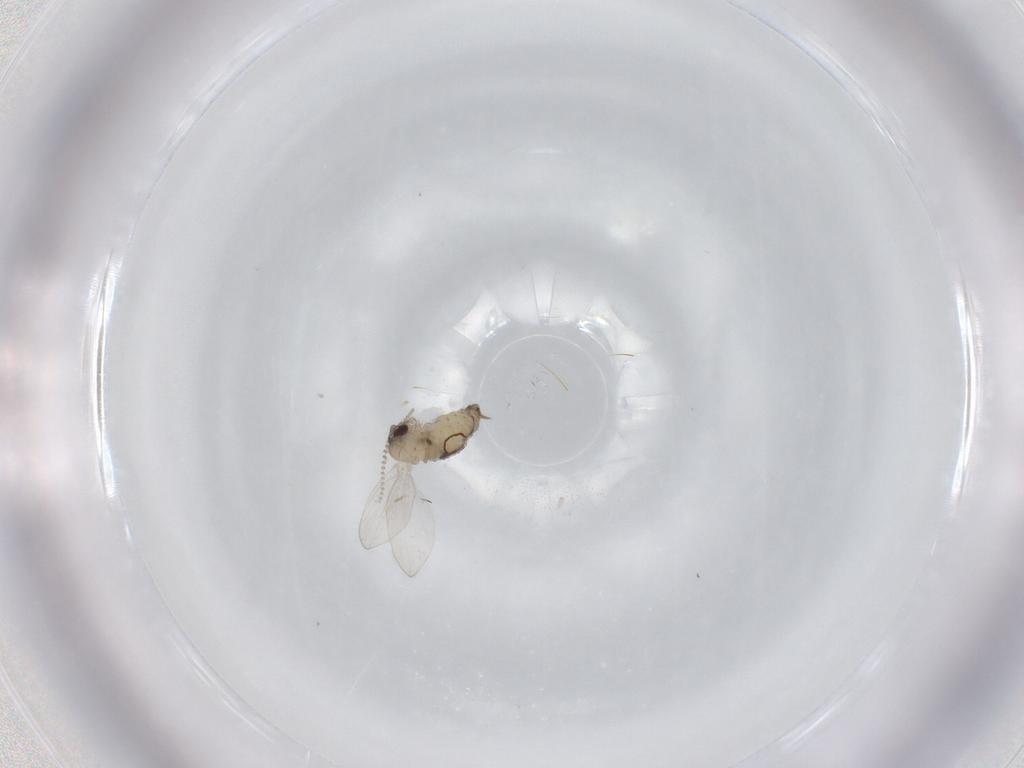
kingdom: Animalia
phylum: Arthropoda
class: Insecta
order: Diptera
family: Psychodidae
